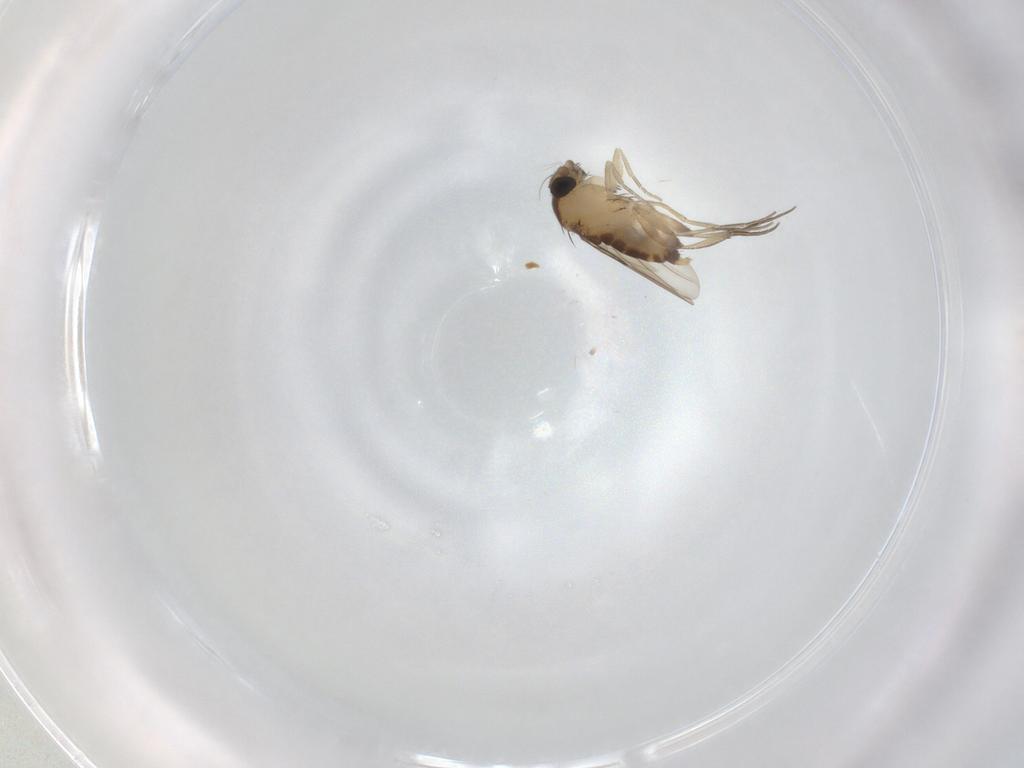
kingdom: Animalia
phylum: Arthropoda
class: Insecta
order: Diptera
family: Phoridae
